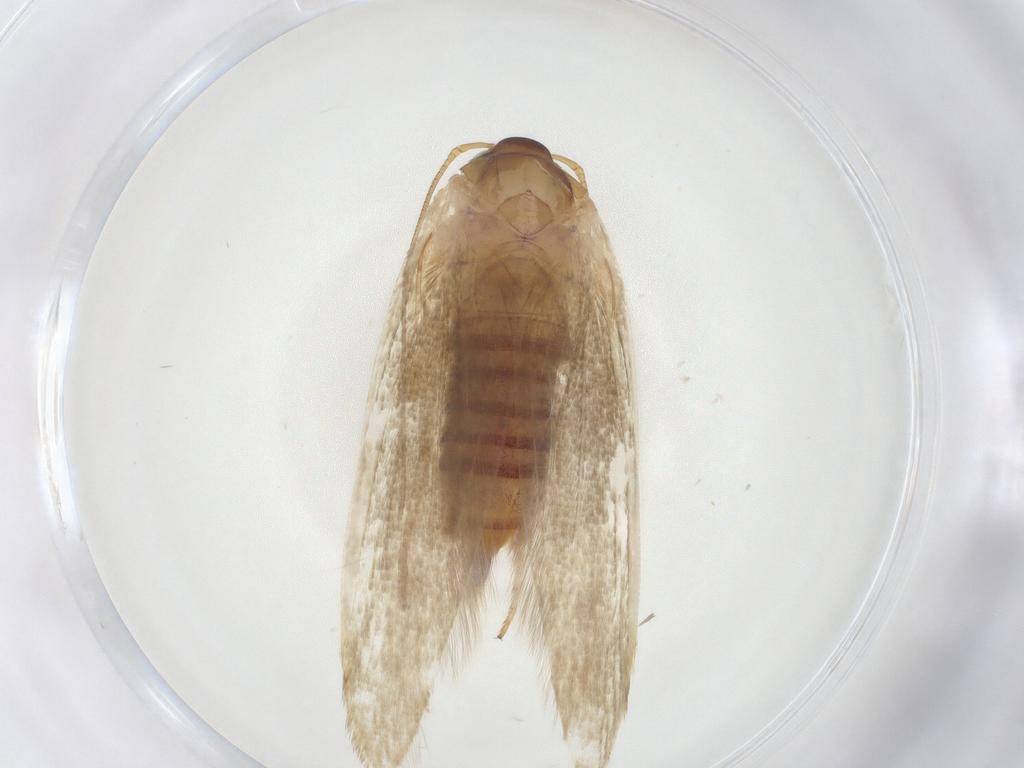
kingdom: Animalia
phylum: Arthropoda
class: Insecta
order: Lepidoptera
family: Blastobasidae
